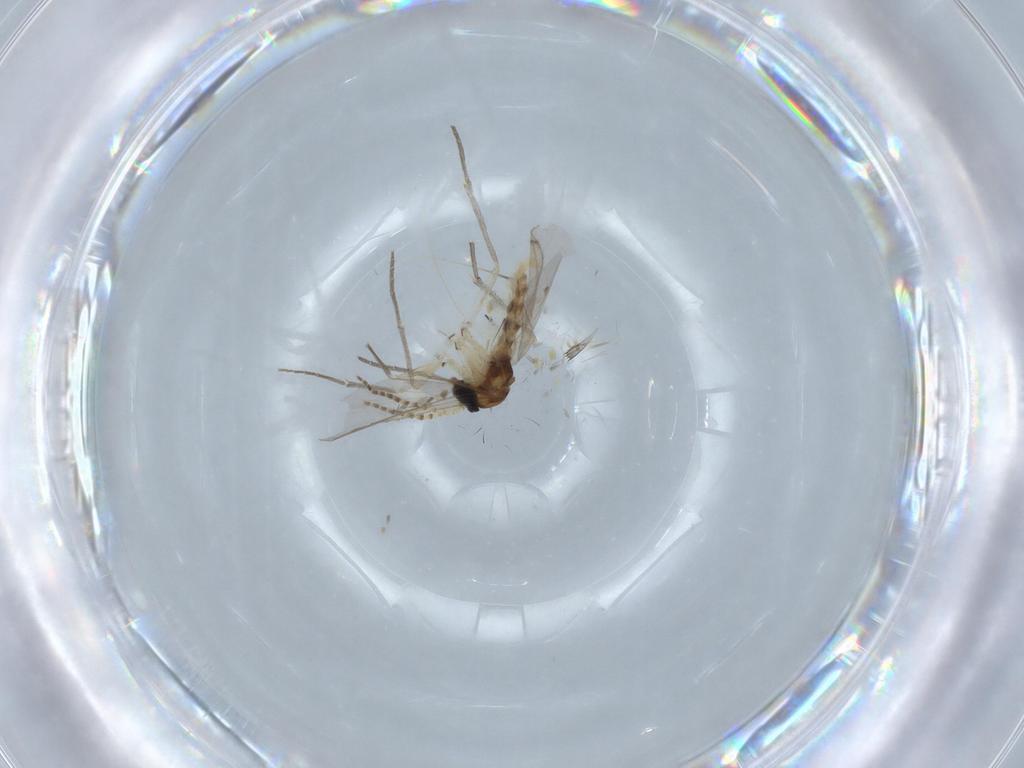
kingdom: Animalia
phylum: Arthropoda
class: Insecta
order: Diptera
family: Sciaridae
